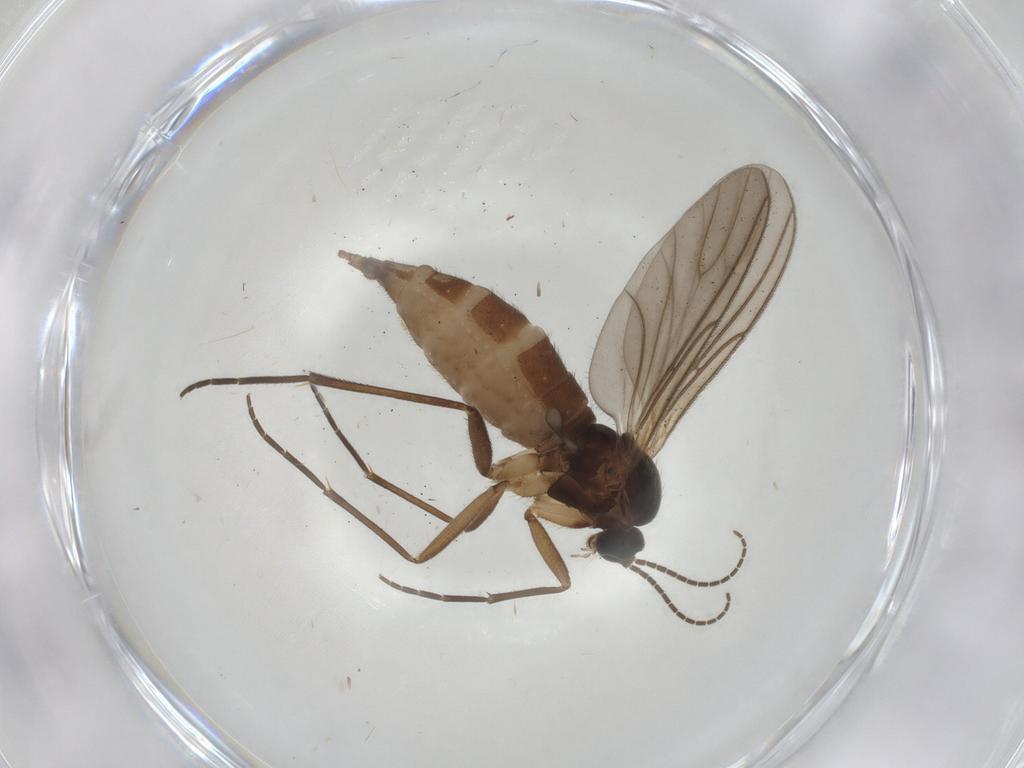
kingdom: Animalia
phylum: Arthropoda
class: Insecta
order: Diptera
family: Sciaridae
